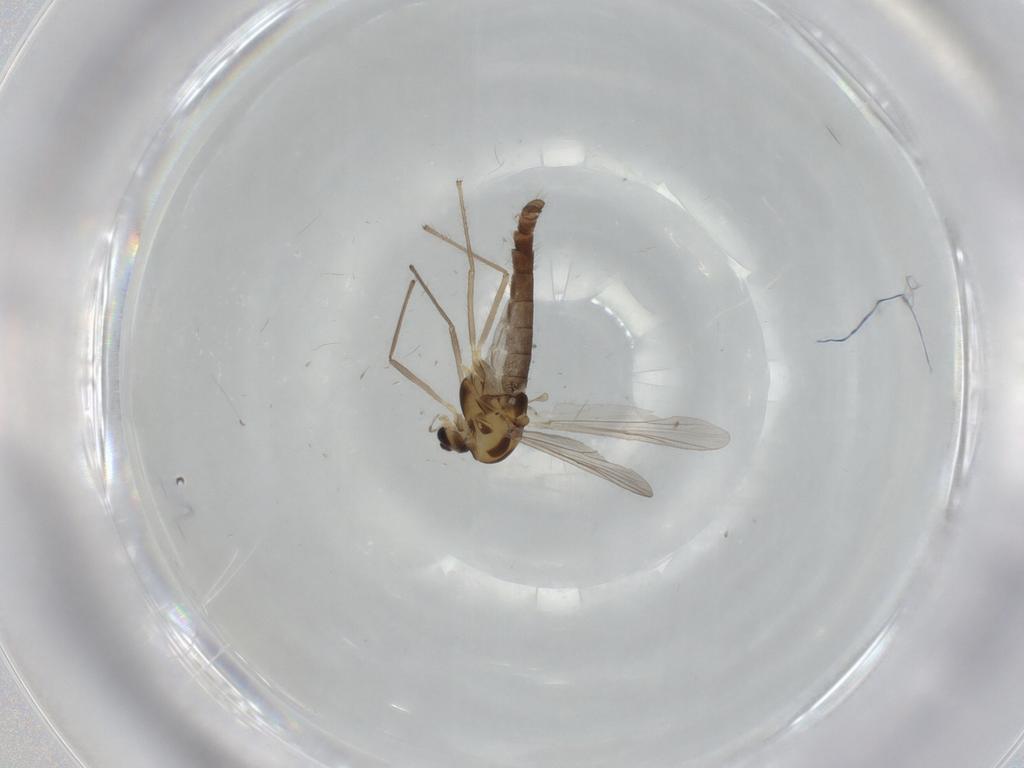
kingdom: Animalia
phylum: Arthropoda
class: Insecta
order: Diptera
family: Chironomidae
